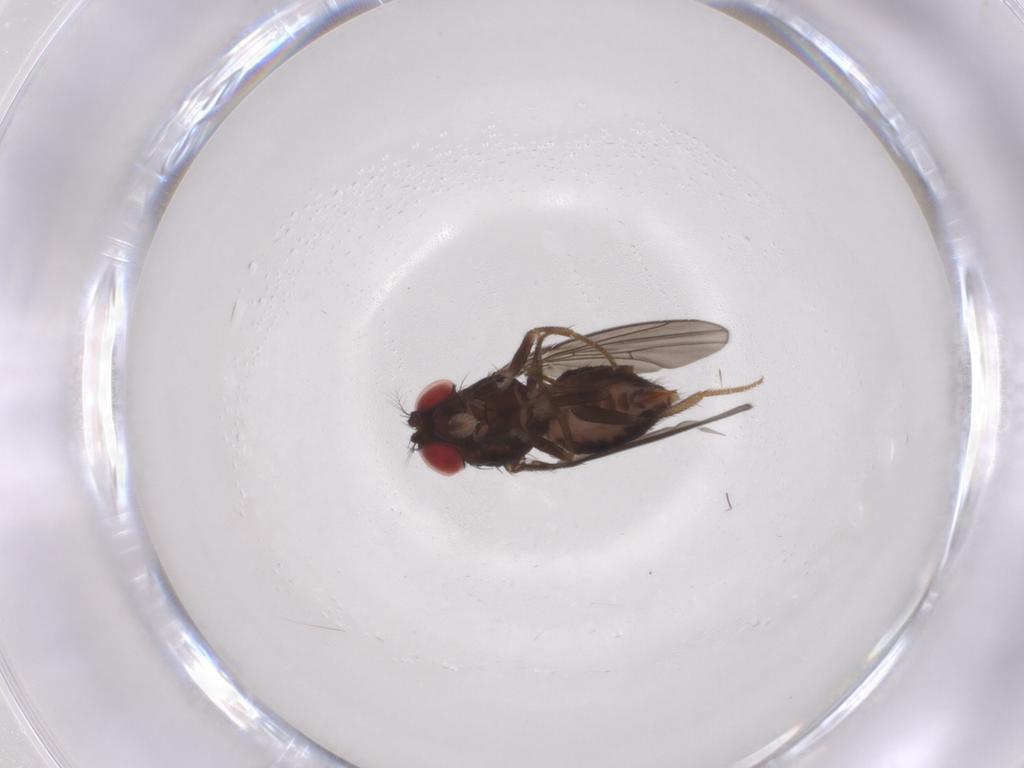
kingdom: Animalia
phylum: Arthropoda
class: Insecta
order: Diptera
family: Drosophilidae
